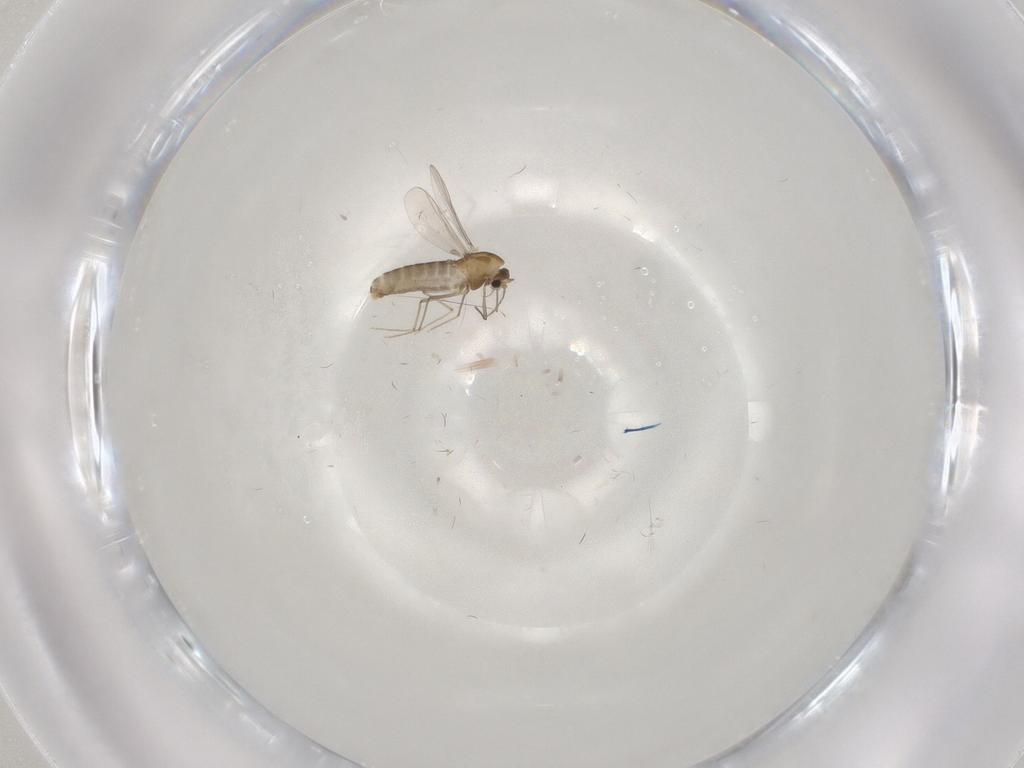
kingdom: Animalia
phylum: Arthropoda
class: Insecta
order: Diptera
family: Chironomidae
